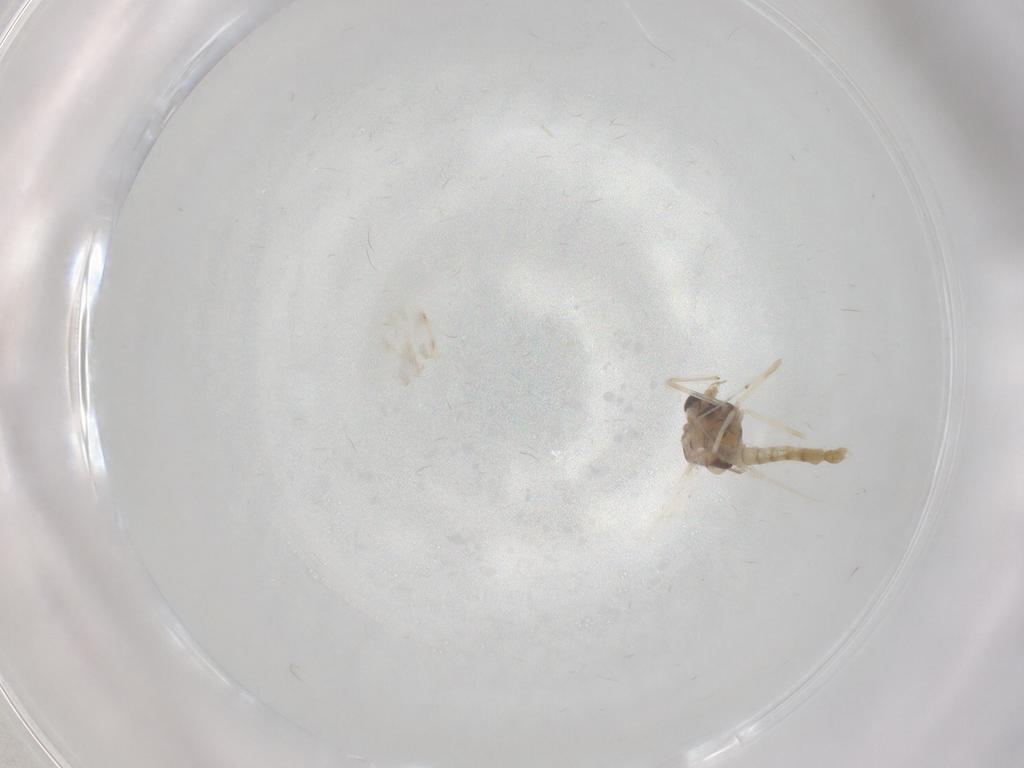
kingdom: Animalia
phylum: Arthropoda
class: Insecta
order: Diptera
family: Chironomidae
